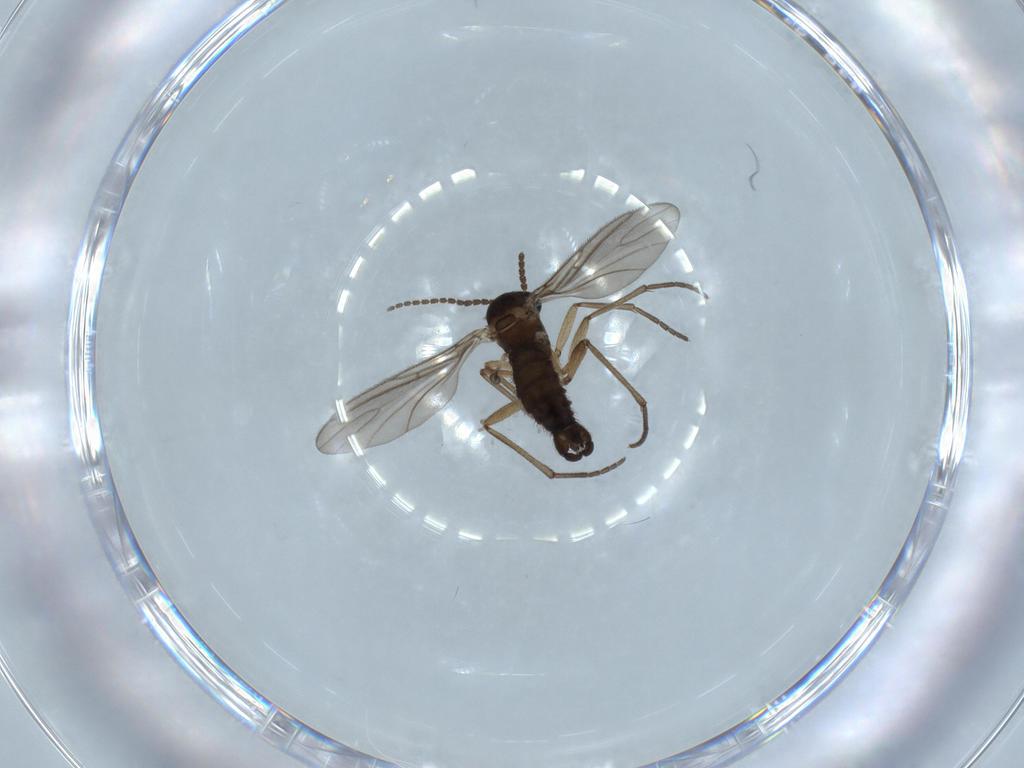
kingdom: Animalia
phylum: Arthropoda
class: Insecta
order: Diptera
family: Sciaridae
